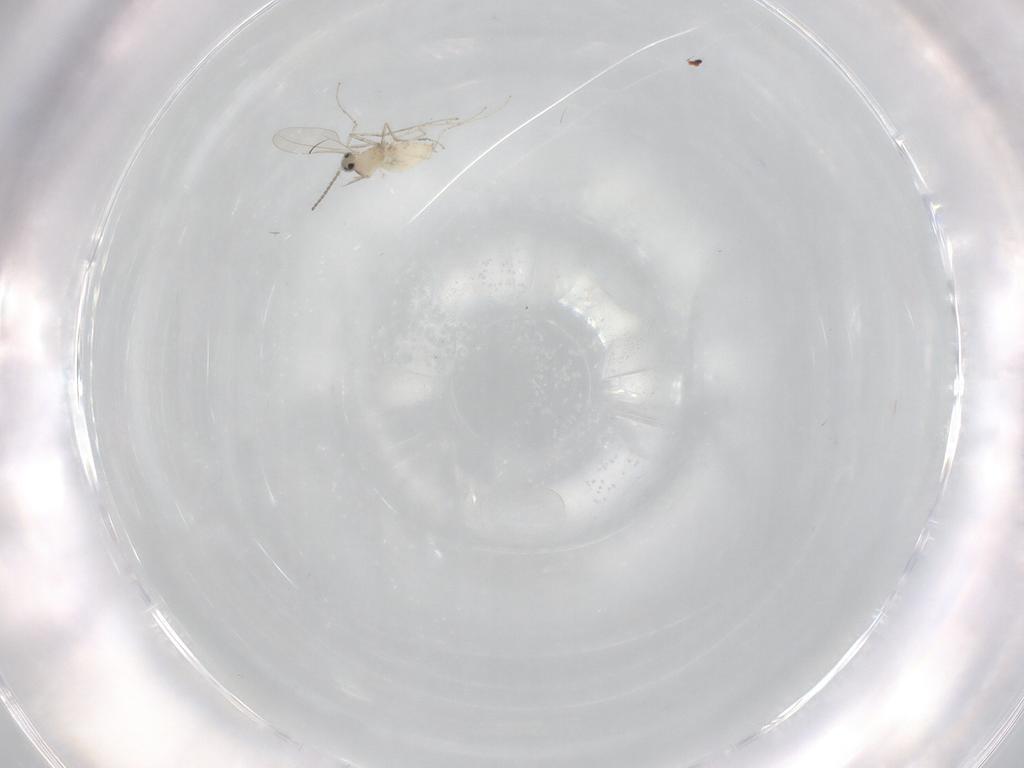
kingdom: Animalia
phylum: Arthropoda
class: Insecta
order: Diptera
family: Cecidomyiidae
